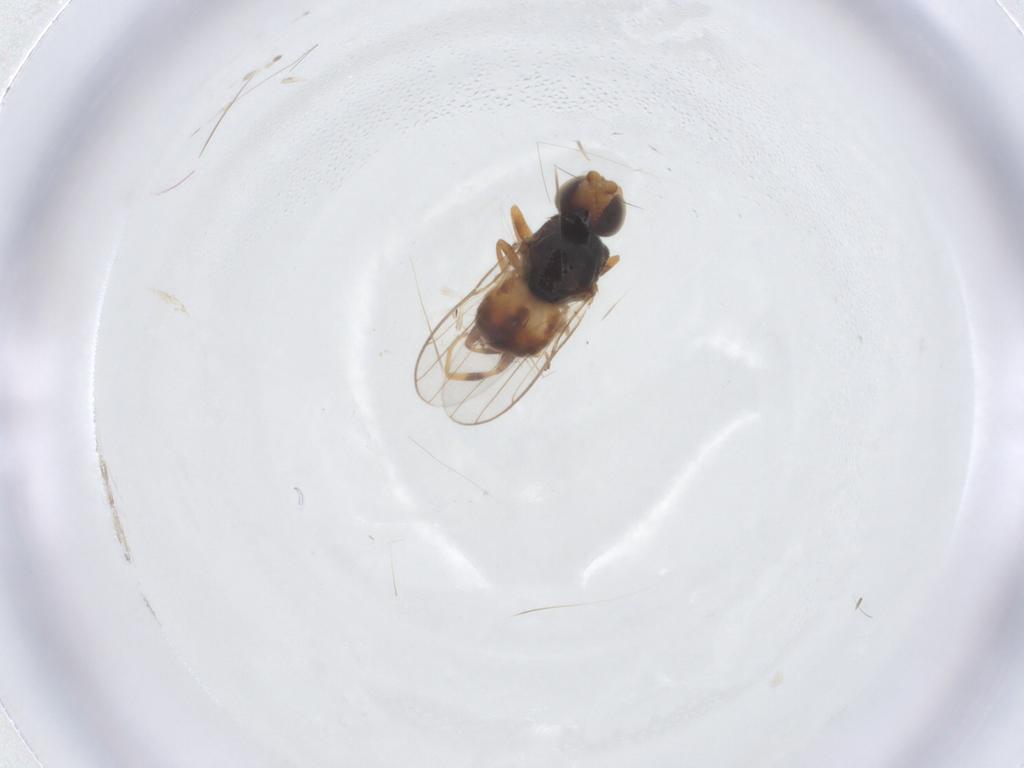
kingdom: Animalia
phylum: Arthropoda
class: Insecta
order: Diptera
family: Chloropidae
